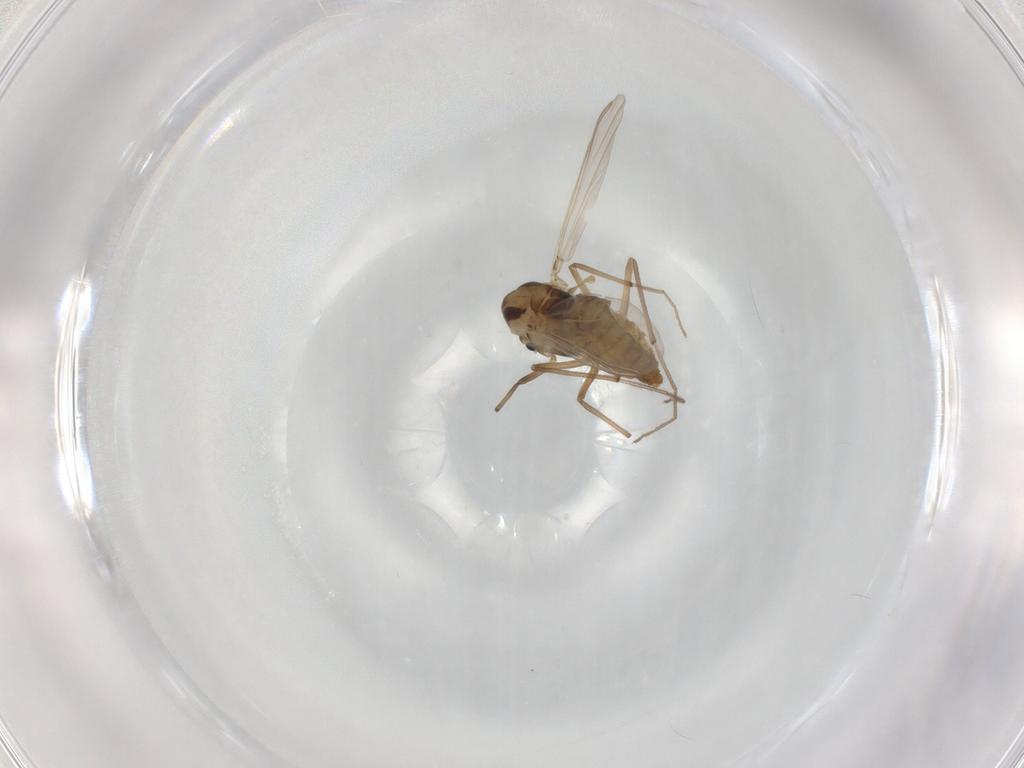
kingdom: Animalia
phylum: Arthropoda
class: Insecta
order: Diptera
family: Chironomidae
